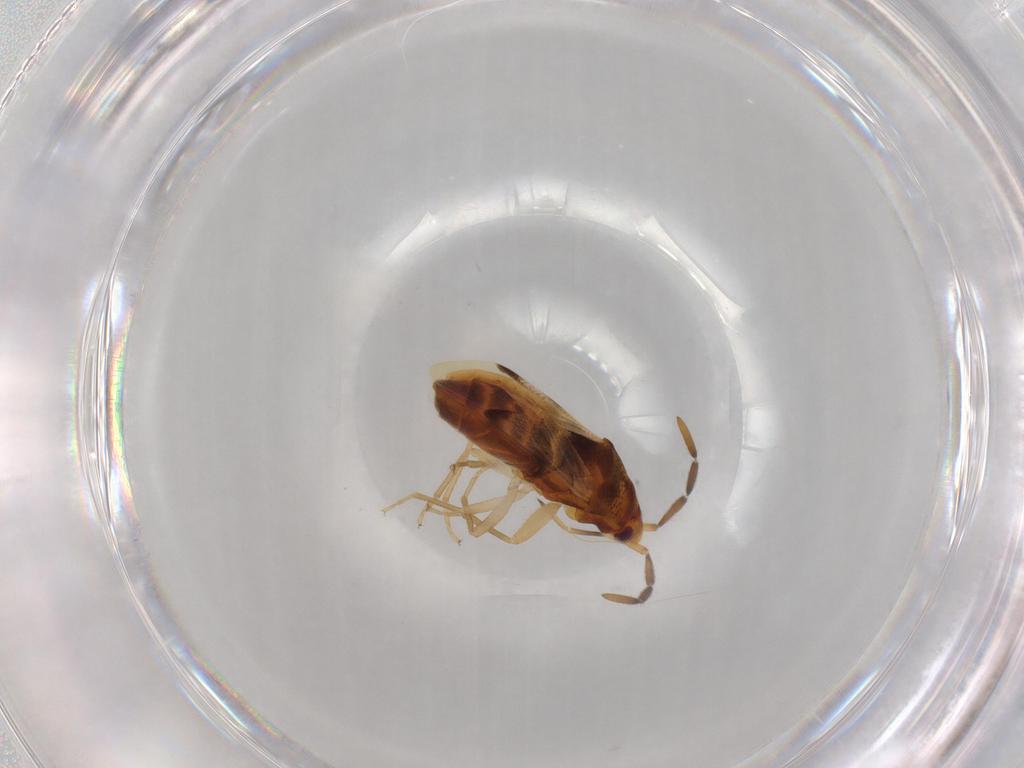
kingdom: Animalia
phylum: Arthropoda
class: Insecta
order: Hemiptera
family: Rhyparochromidae
